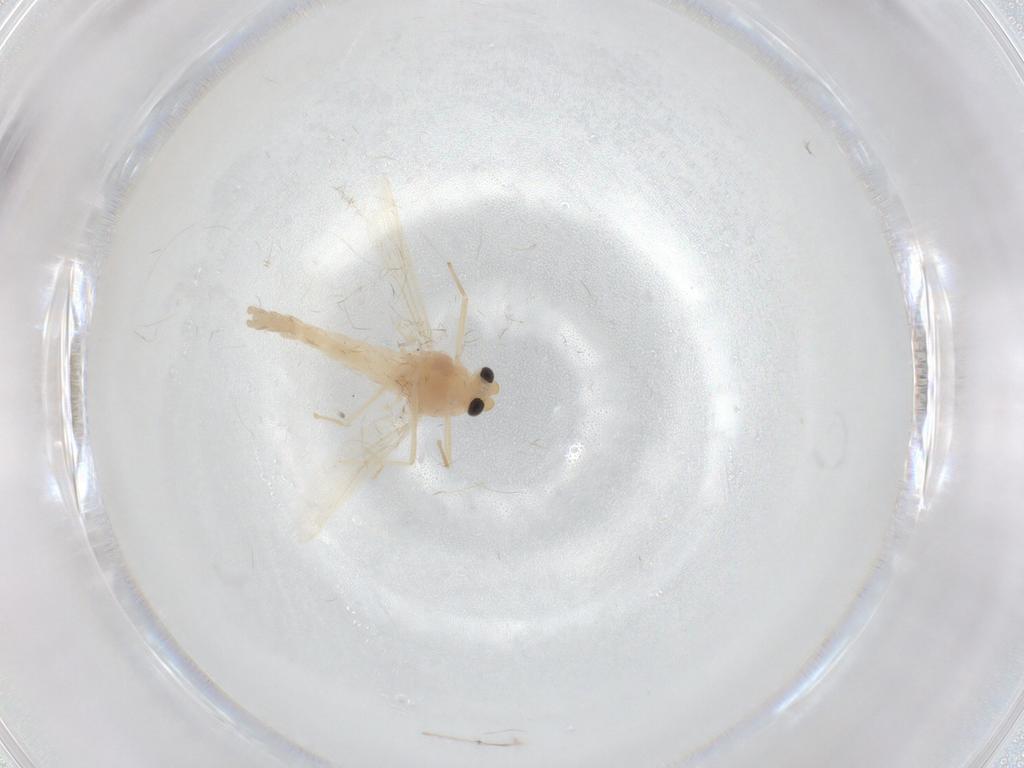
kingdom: Animalia
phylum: Arthropoda
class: Insecta
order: Diptera
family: Chironomidae
